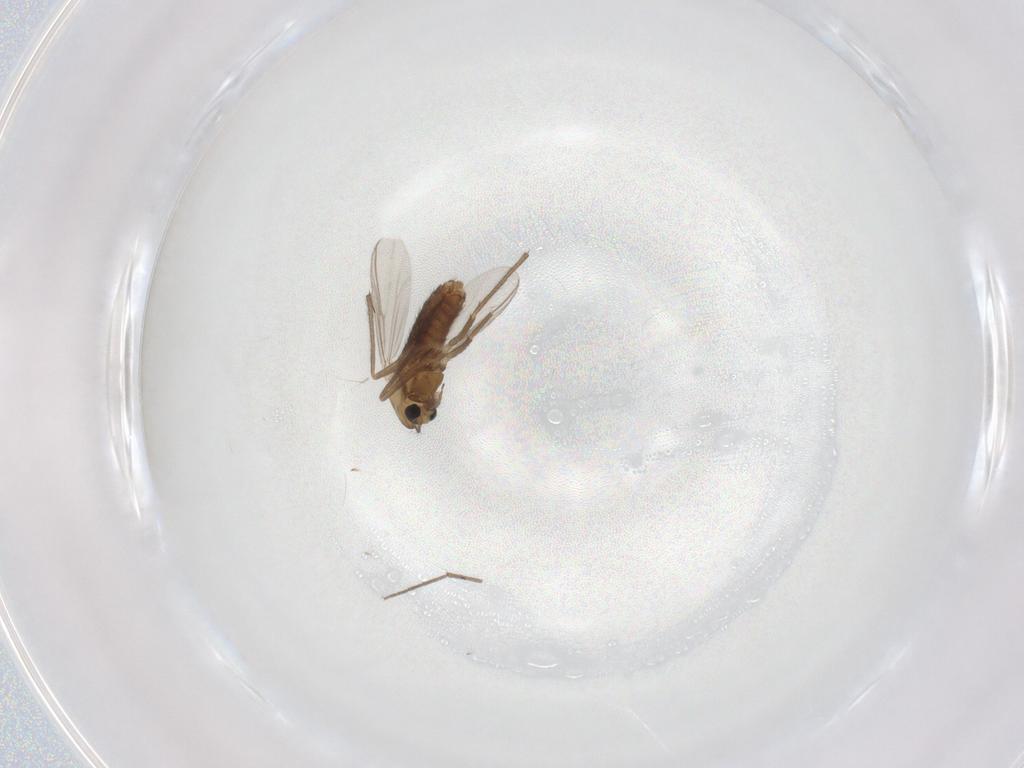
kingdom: Animalia
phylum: Arthropoda
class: Insecta
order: Diptera
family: Chironomidae
